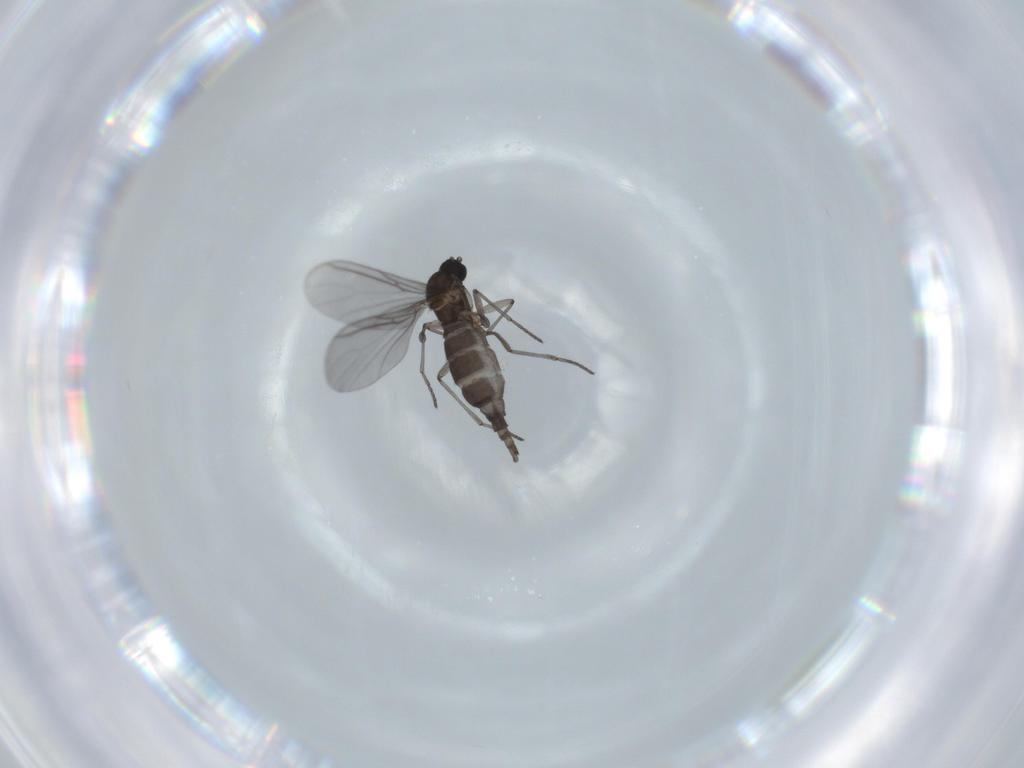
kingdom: Animalia
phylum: Arthropoda
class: Insecta
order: Diptera
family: Sciaridae
